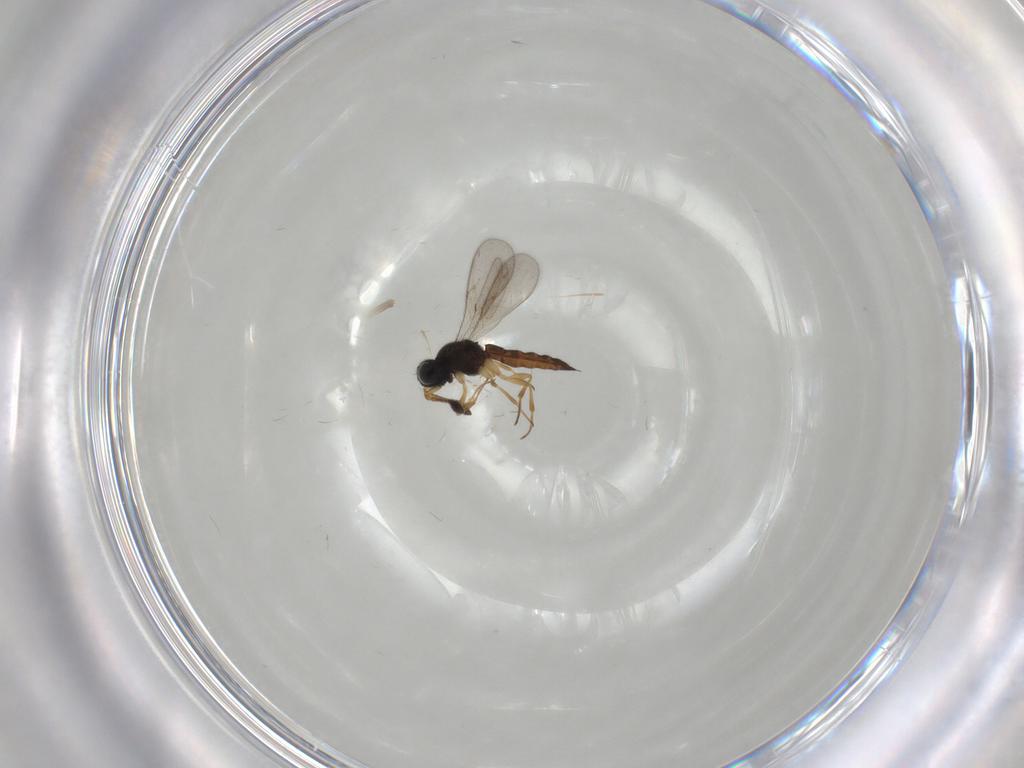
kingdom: Animalia
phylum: Arthropoda
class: Insecta
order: Hymenoptera
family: Scelionidae
